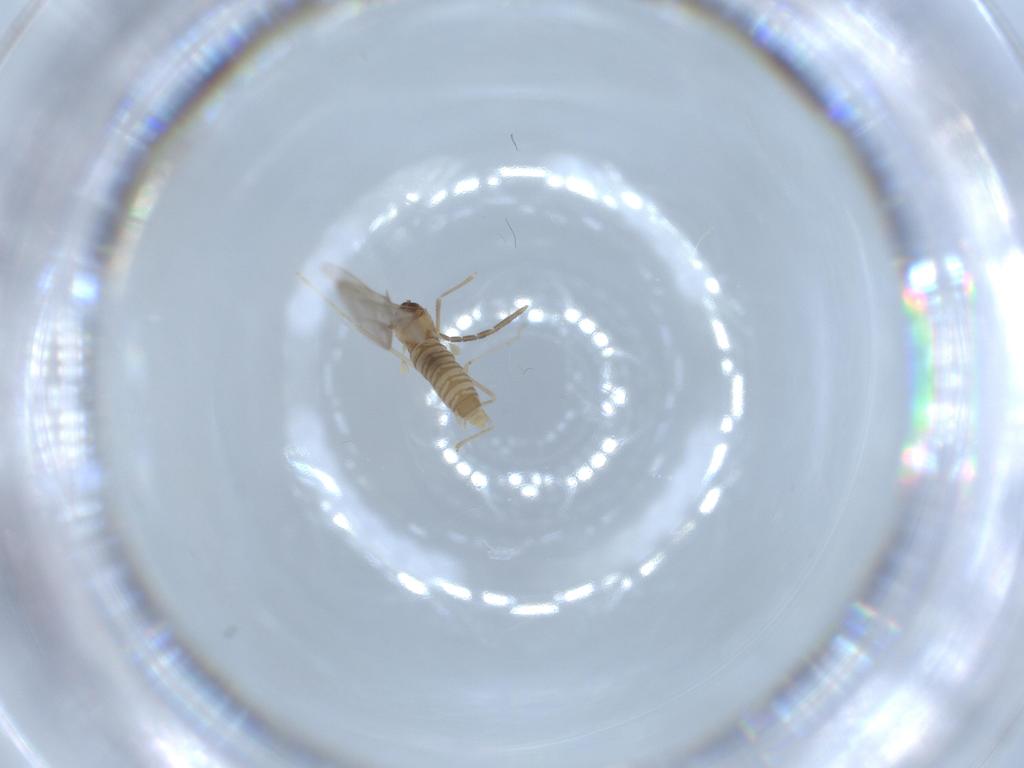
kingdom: Animalia
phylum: Arthropoda
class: Insecta
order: Diptera
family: Cecidomyiidae
